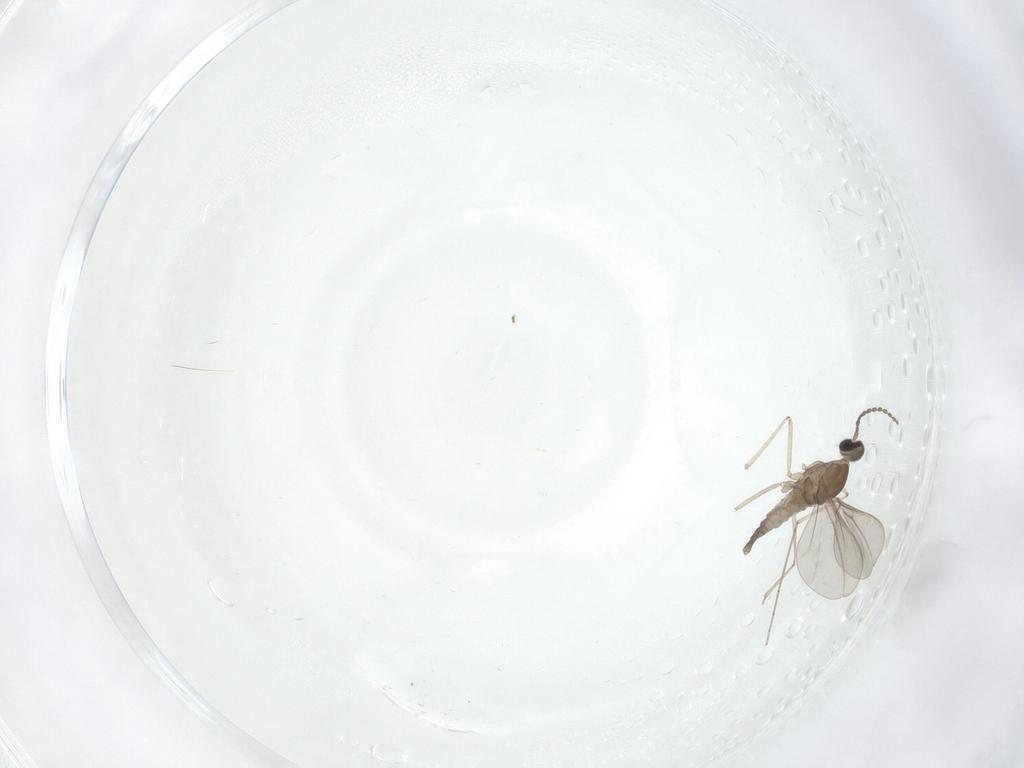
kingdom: Animalia
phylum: Arthropoda
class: Insecta
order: Diptera
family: Cecidomyiidae
